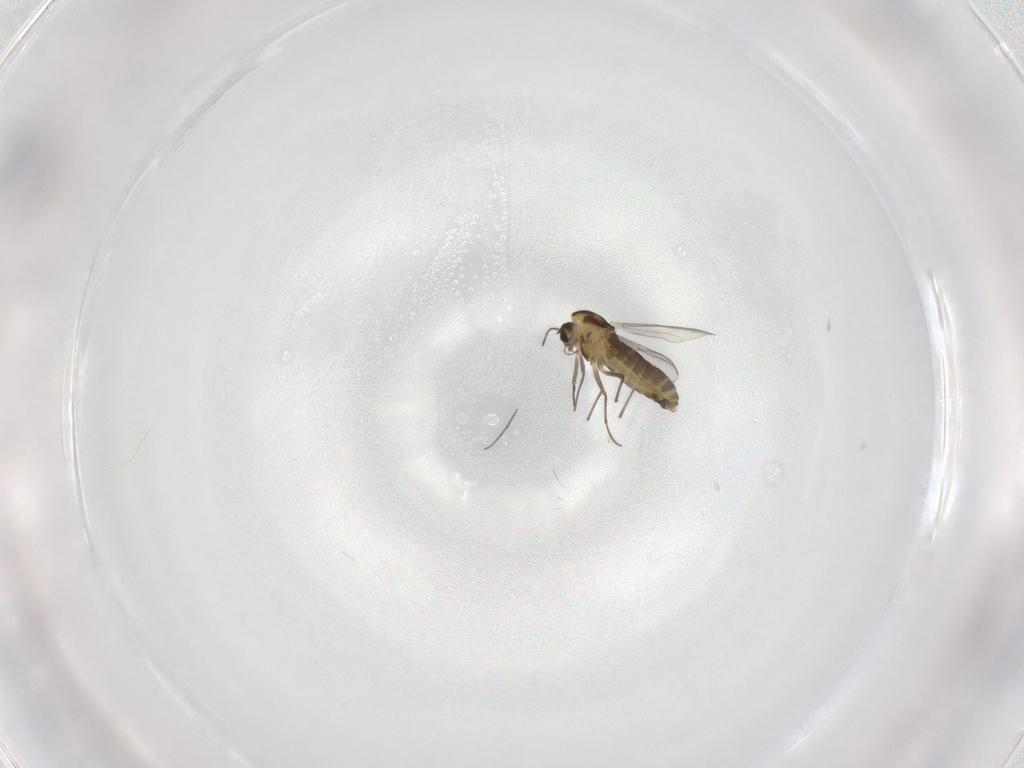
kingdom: Animalia
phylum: Arthropoda
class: Insecta
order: Diptera
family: Chironomidae
